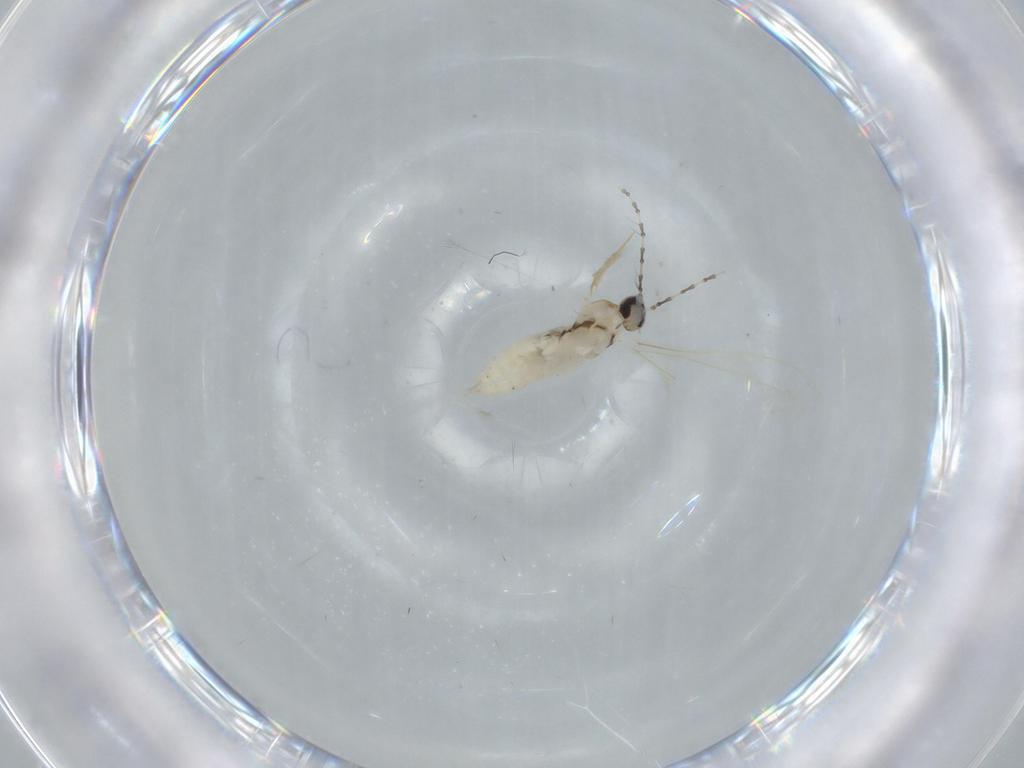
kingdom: Animalia
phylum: Arthropoda
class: Insecta
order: Diptera
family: Cecidomyiidae
